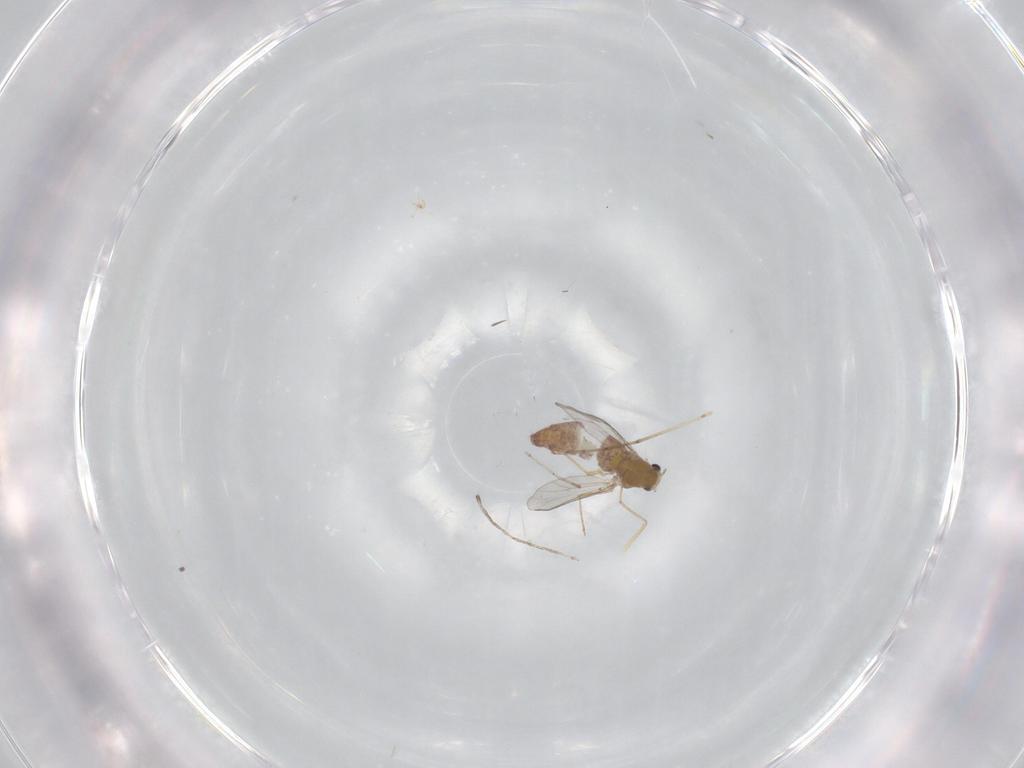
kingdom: Animalia
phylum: Arthropoda
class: Insecta
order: Diptera
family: Chironomidae
